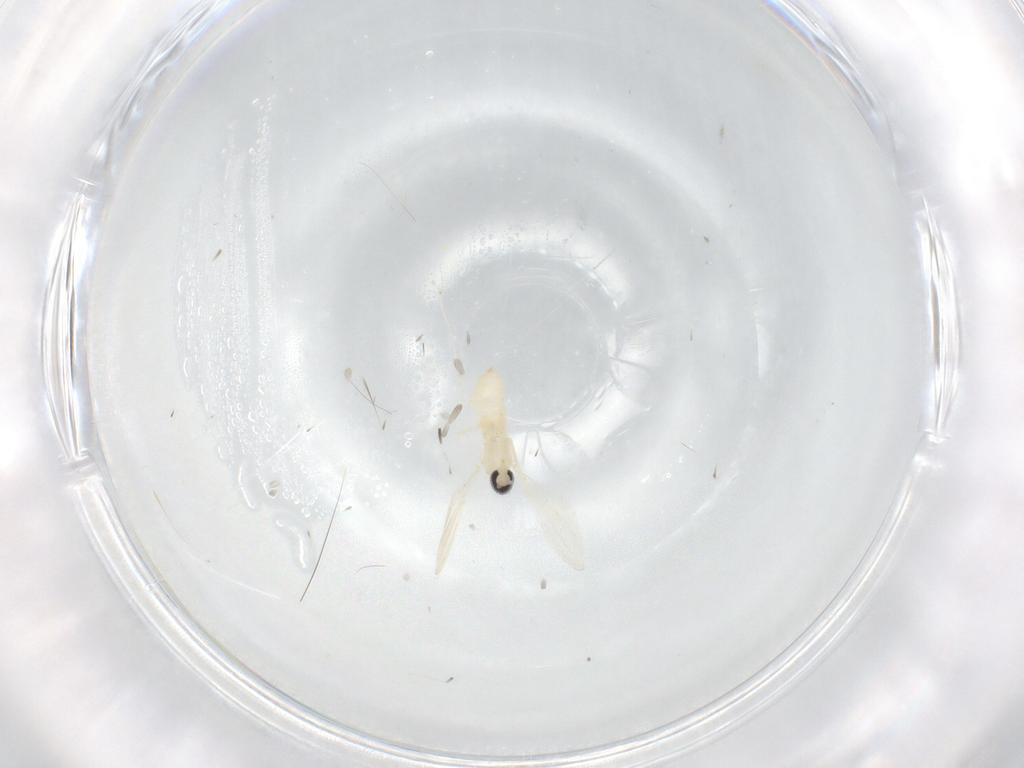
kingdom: Animalia
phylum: Arthropoda
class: Insecta
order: Diptera
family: Cecidomyiidae
